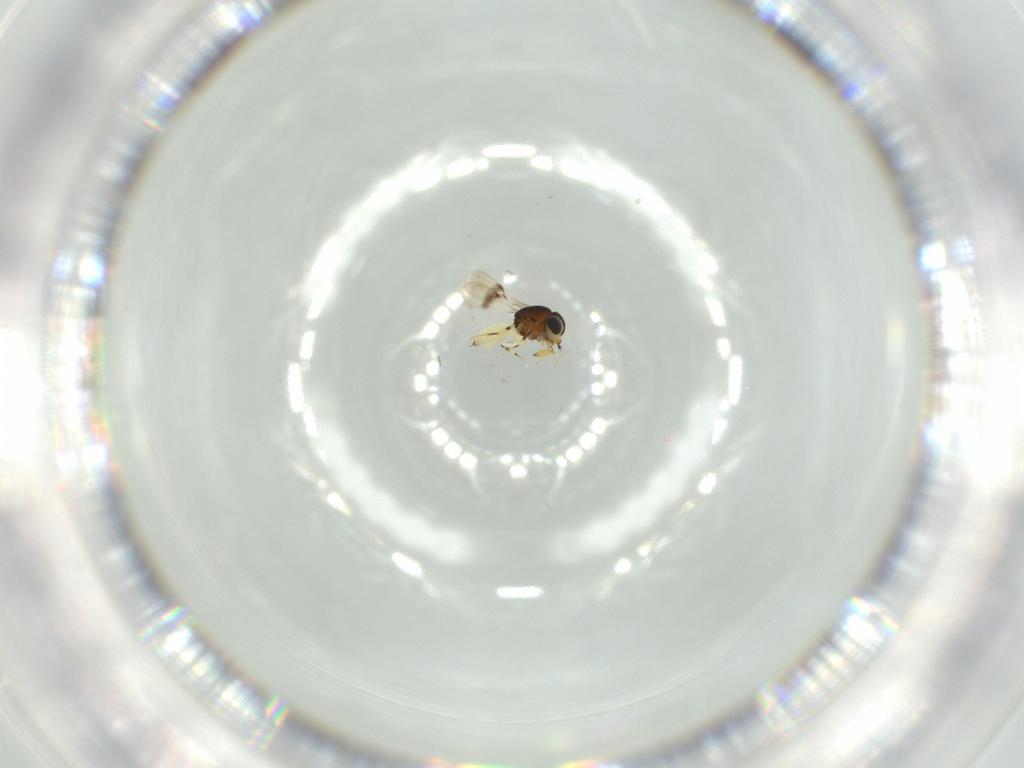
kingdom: Animalia
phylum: Arthropoda
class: Insecta
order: Hymenoptera
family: Scelionidae
